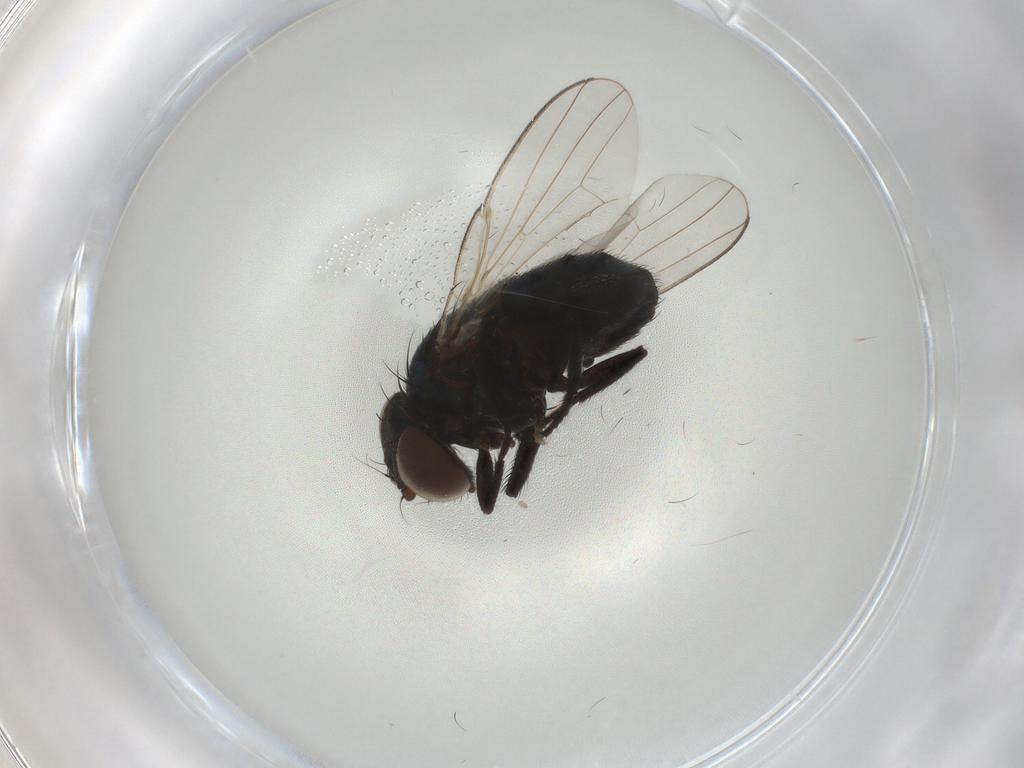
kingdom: Animalia
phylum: Arthropoda
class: Insecta
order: Diptera
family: Milichiidae
